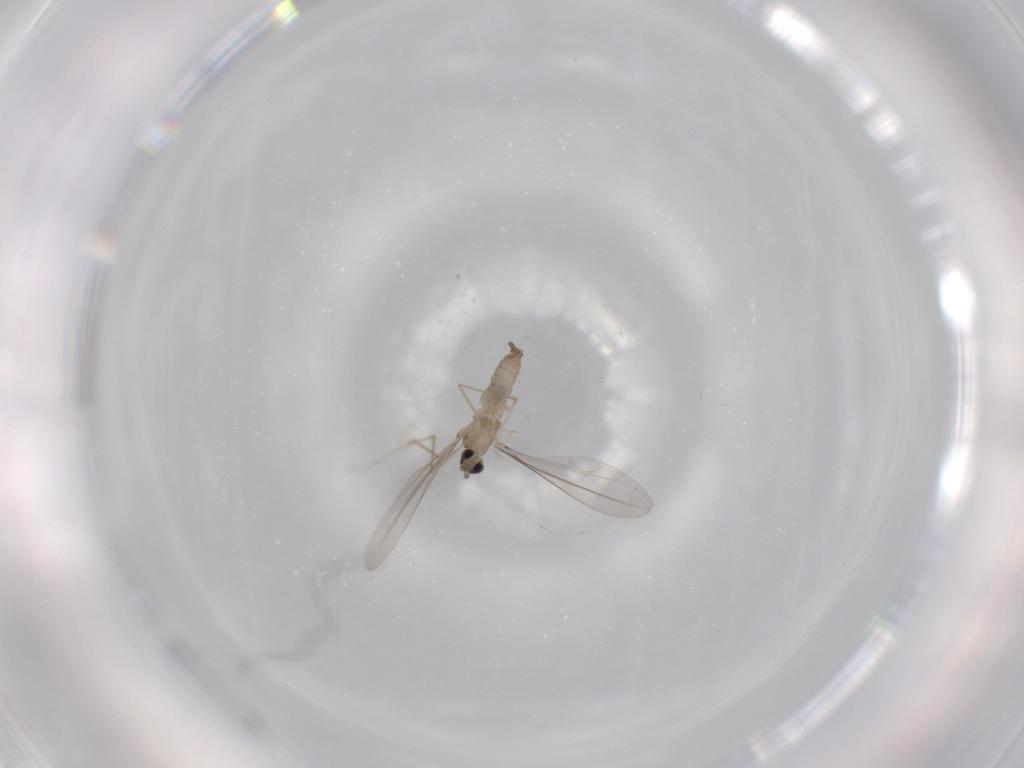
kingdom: Animalia
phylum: Arthropoda
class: Insecta
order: Diptera
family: Cecidomyiidae
